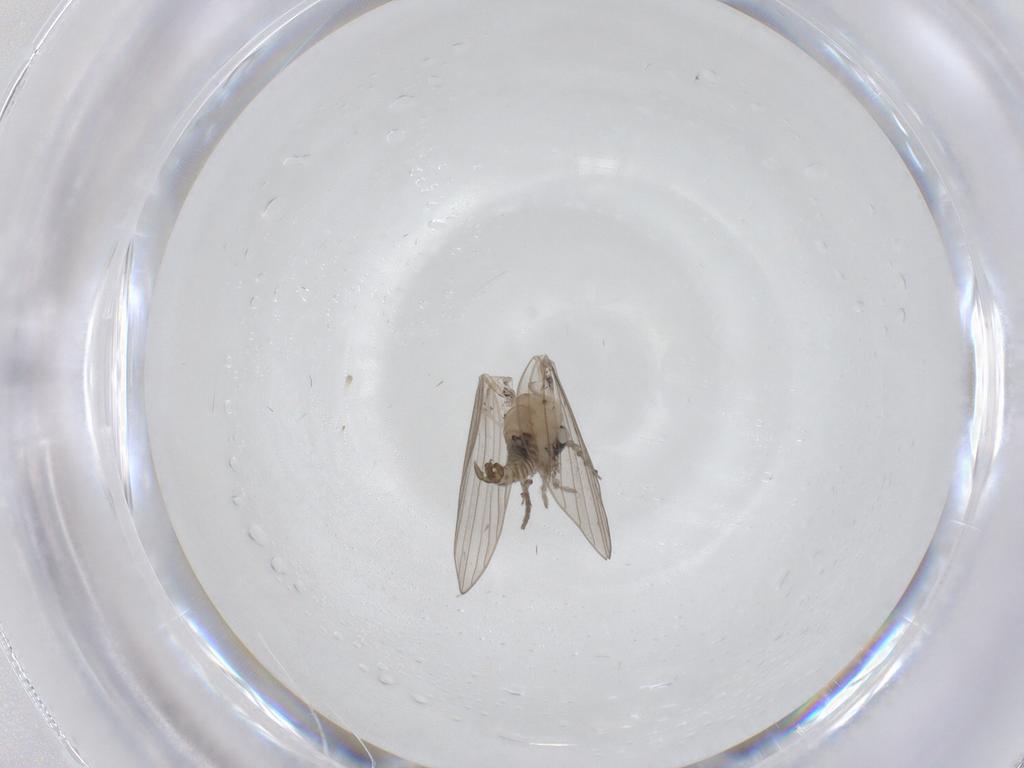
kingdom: Animalia
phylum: Arthropoda
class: Insecta
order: Diptera
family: Psychodidae
